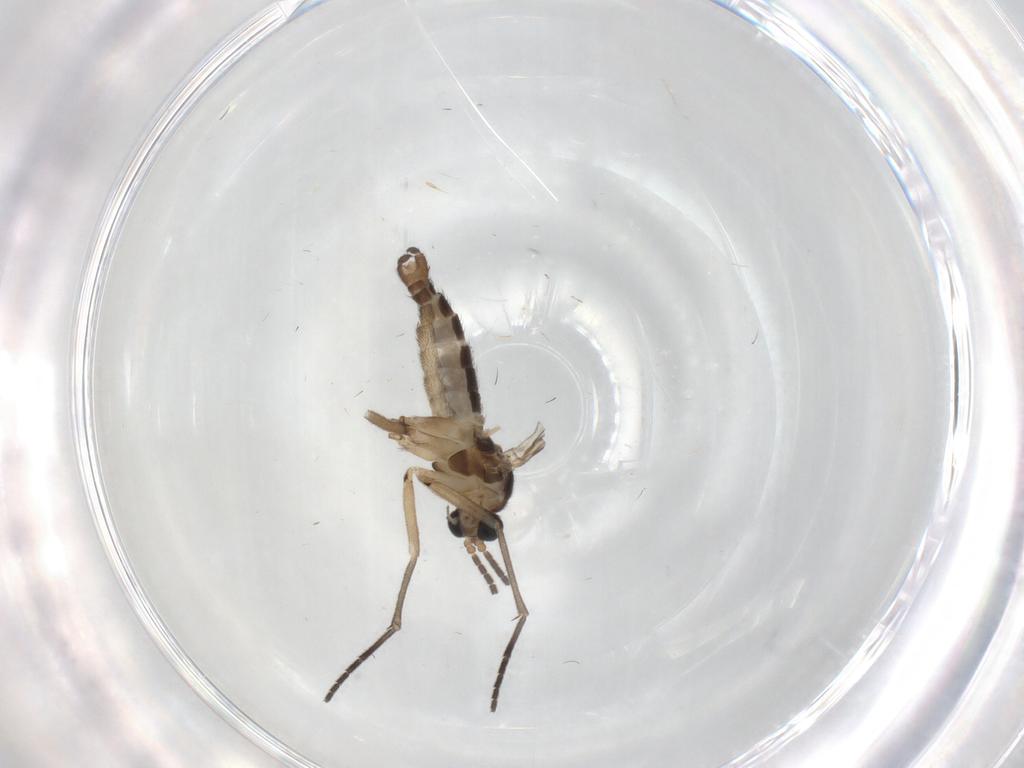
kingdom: Animalia
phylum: Arthropoda
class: Insecta
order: Diptera
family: Sciaridae
